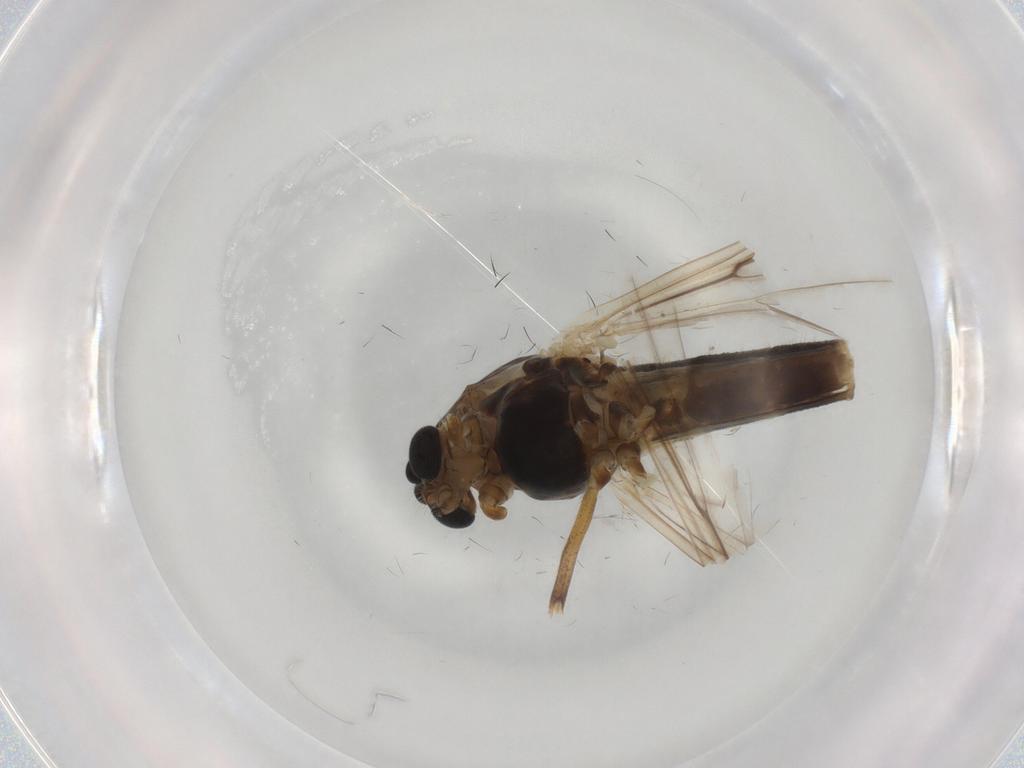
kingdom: Animalia
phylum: Arthropoda
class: Insecta
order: Diptera
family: Chironomidae
